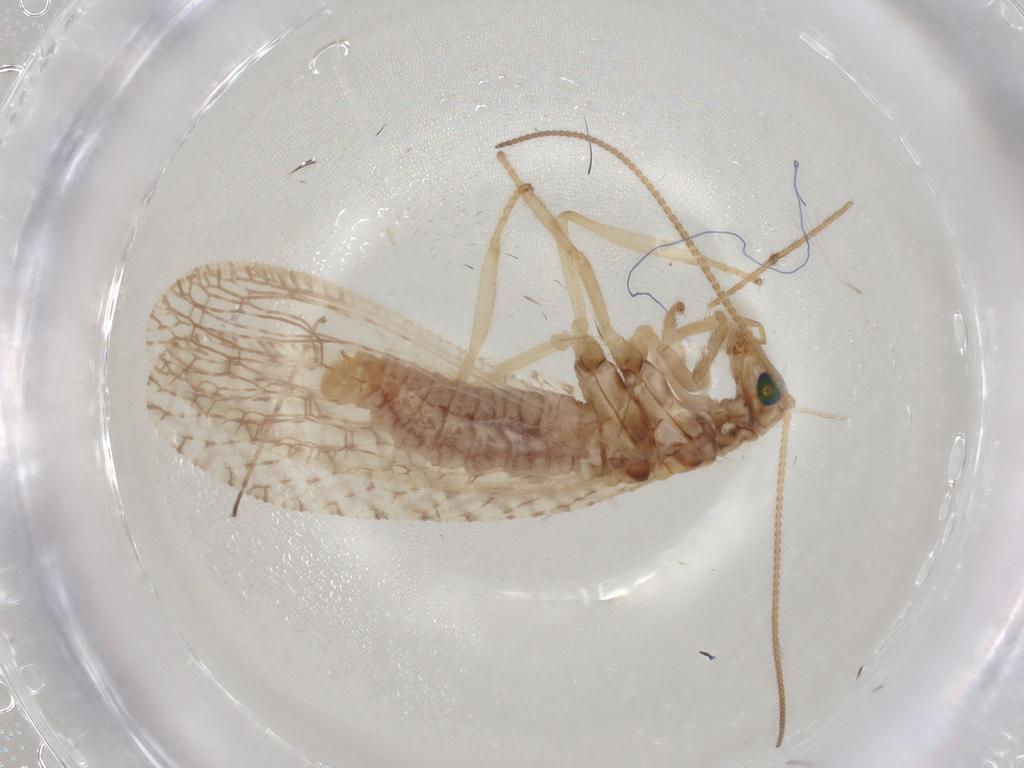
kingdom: Animalia
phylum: Arthropoda
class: Insecta
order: Neuroptera
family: Hemerobiidae
